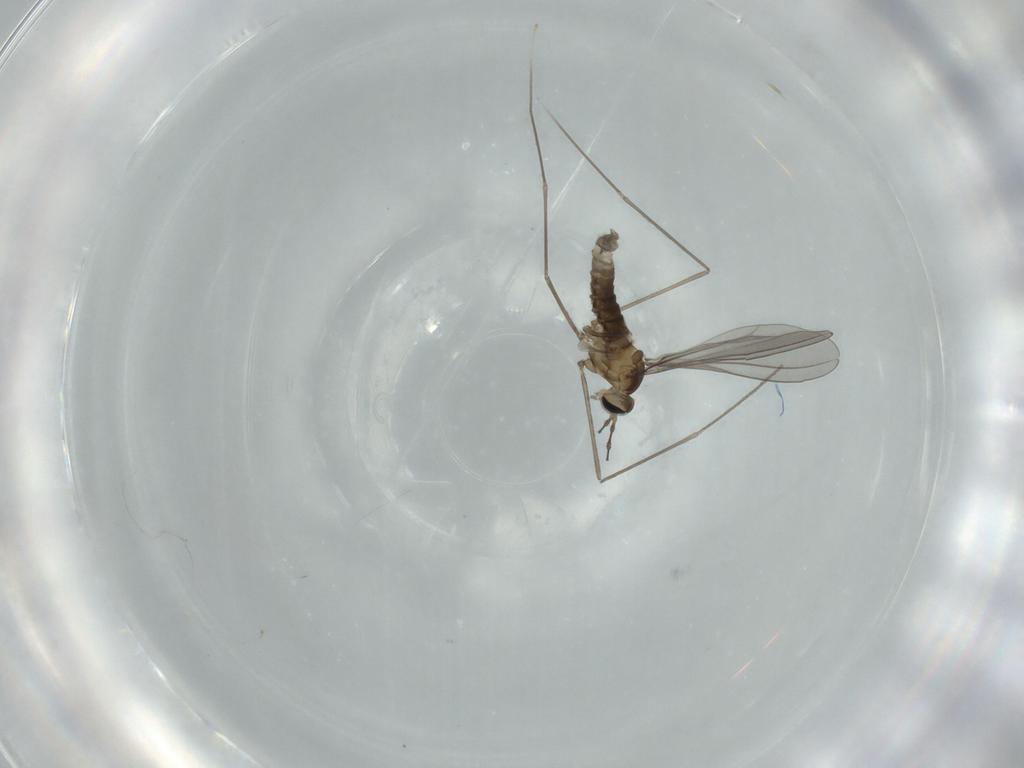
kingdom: Animalia
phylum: Arthropoda
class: Insecta
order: Diptera
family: Cecidomyiidae
